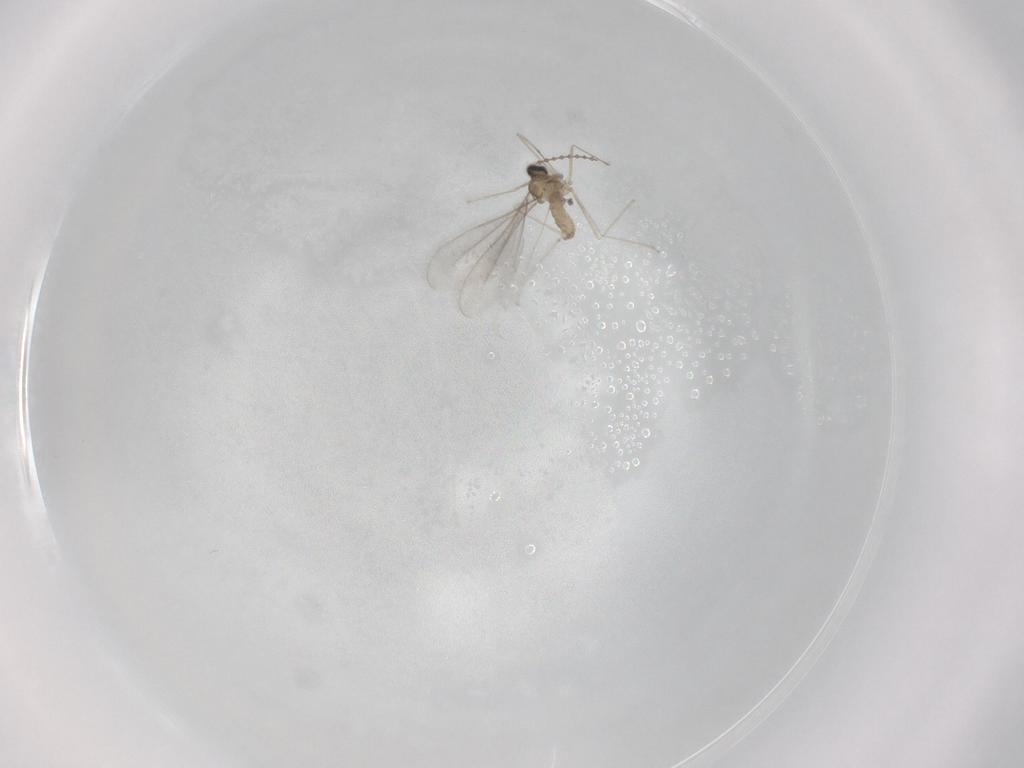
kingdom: Animalia
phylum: Arthropoda
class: Insecta
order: Diptera
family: Cecidomyiidae
